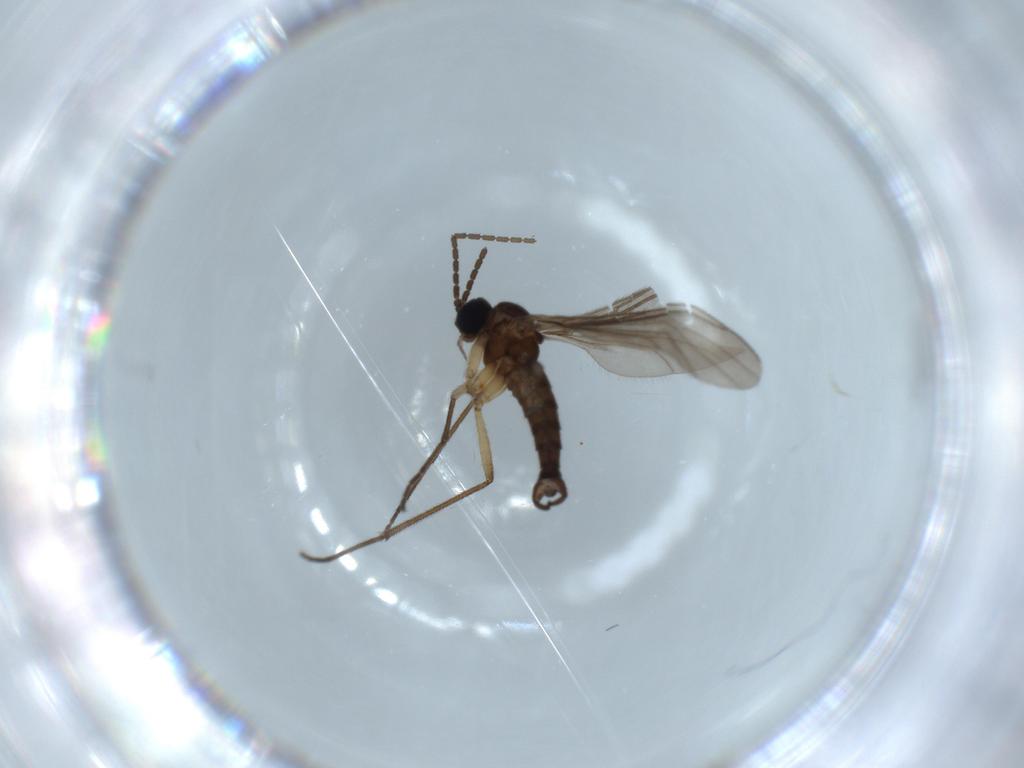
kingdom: Animalia
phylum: Arthropoda
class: Insecta
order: Diptera
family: Sciaridae
